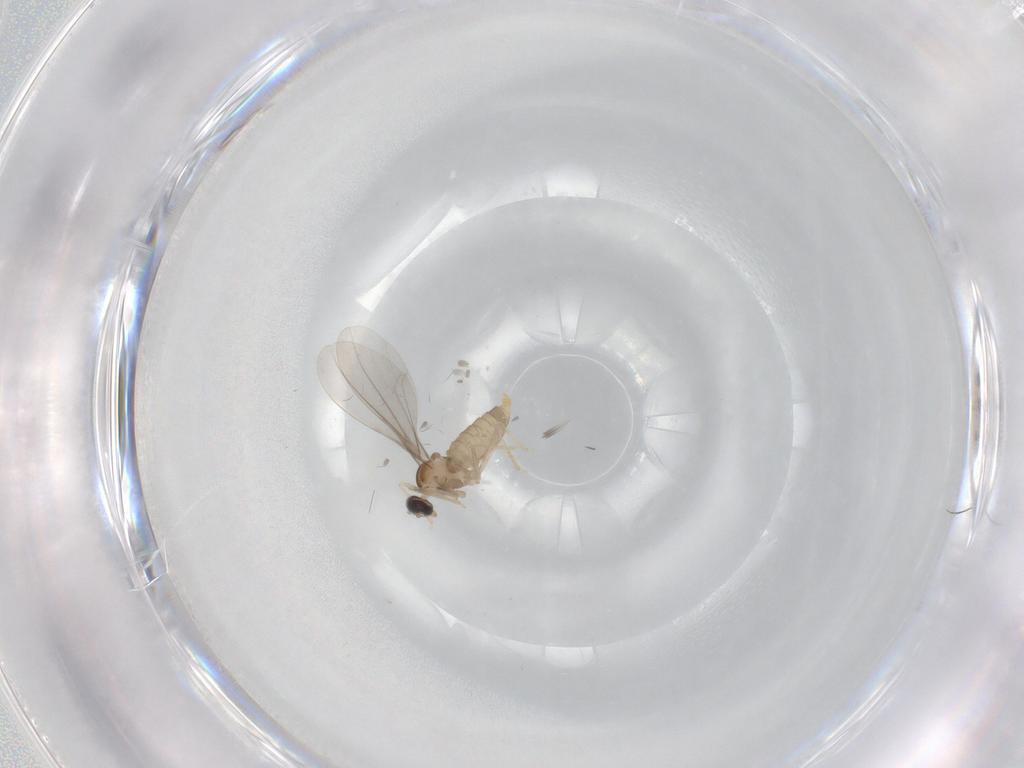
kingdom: Animalia
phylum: Arthropoda
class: Insecta
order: Diptera
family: Cecidomyiidae
